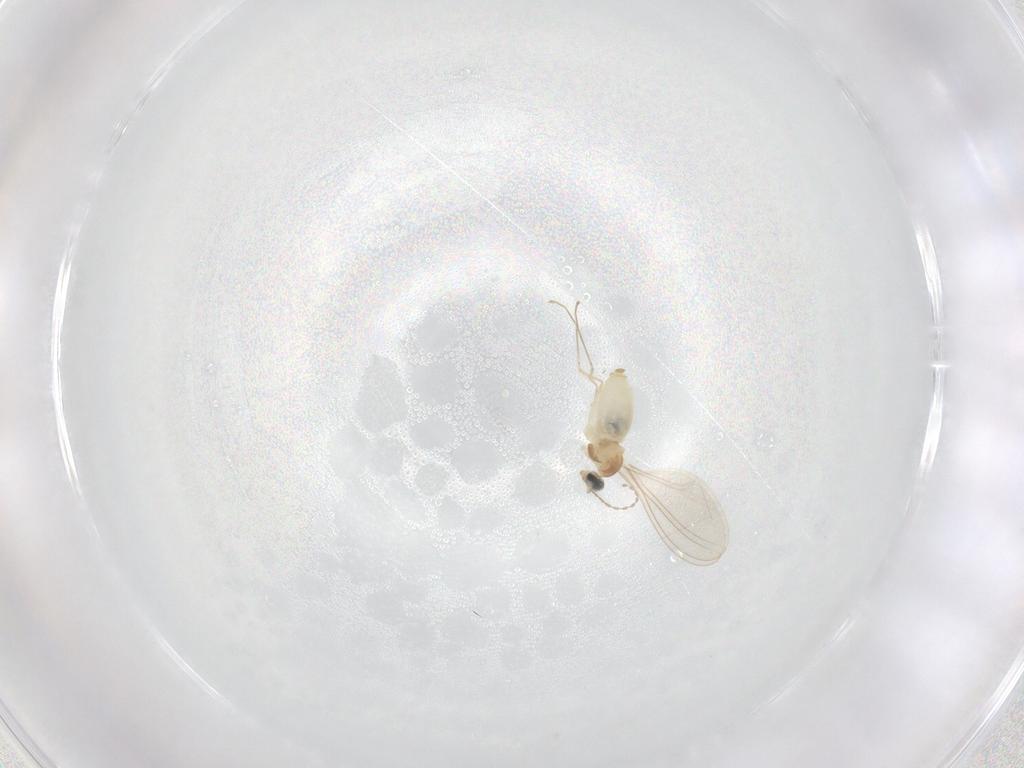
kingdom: Animalia
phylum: Arthropoda
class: Insecta
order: Diptera
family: Cecidomyiidae
